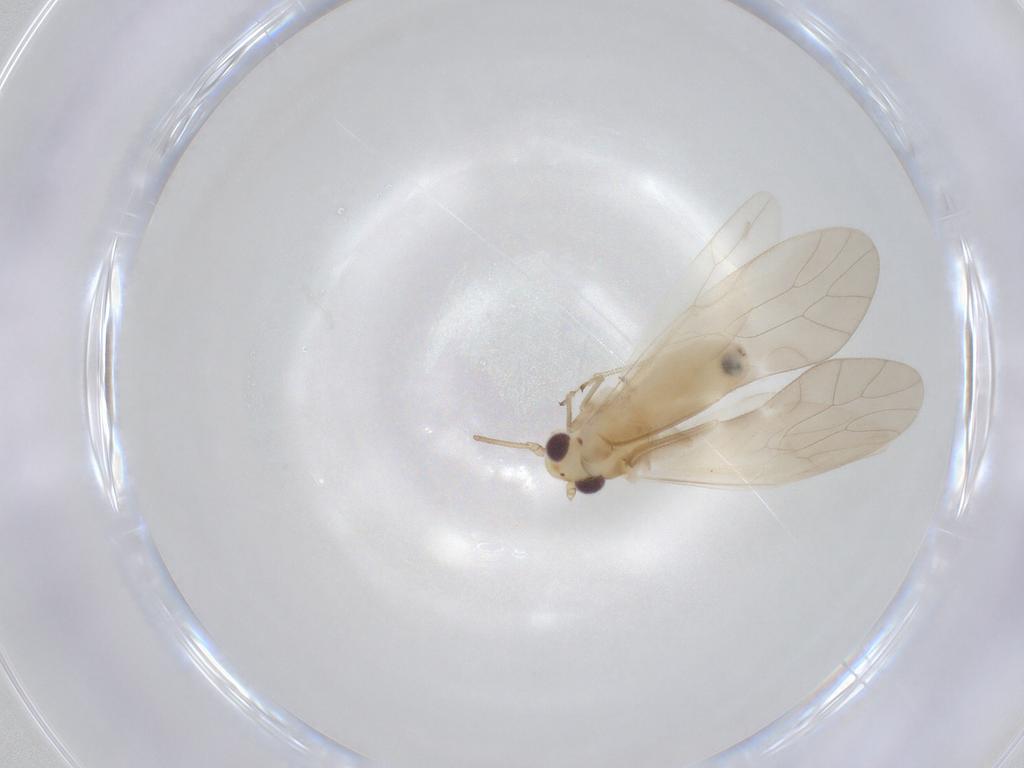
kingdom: Animalia
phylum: Arthropoda
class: Insecta
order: Psocodea
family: Caeciliusidae
